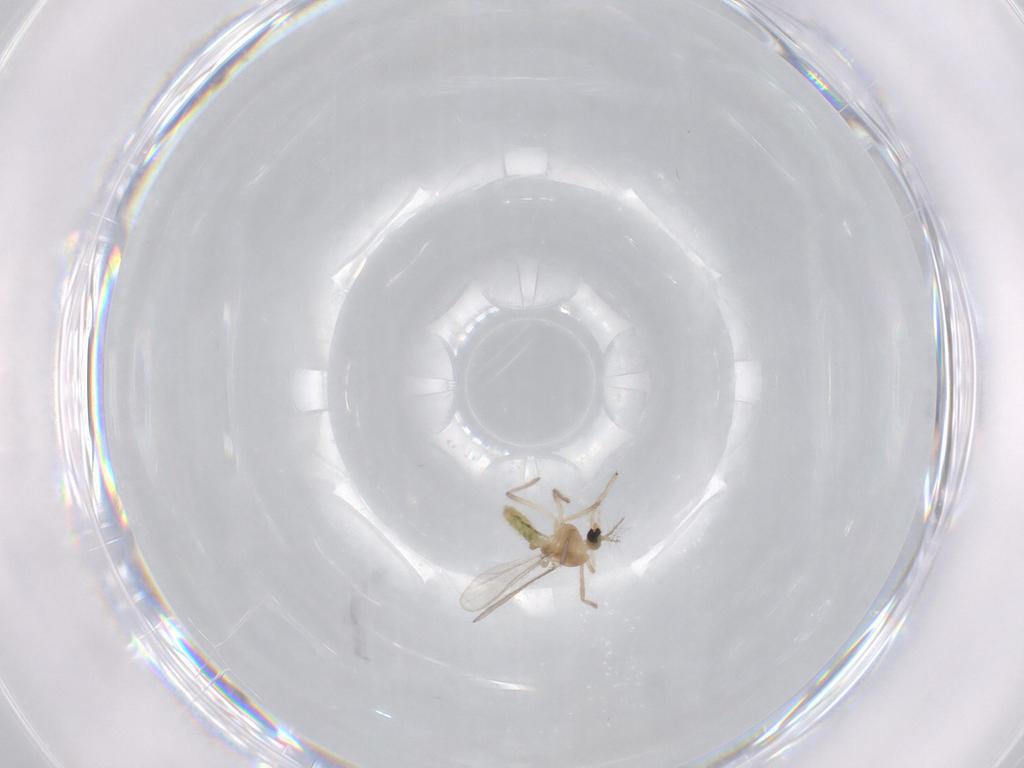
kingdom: Animalia
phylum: Arthropoda
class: Insecta
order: Diptera
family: Chironomidae
